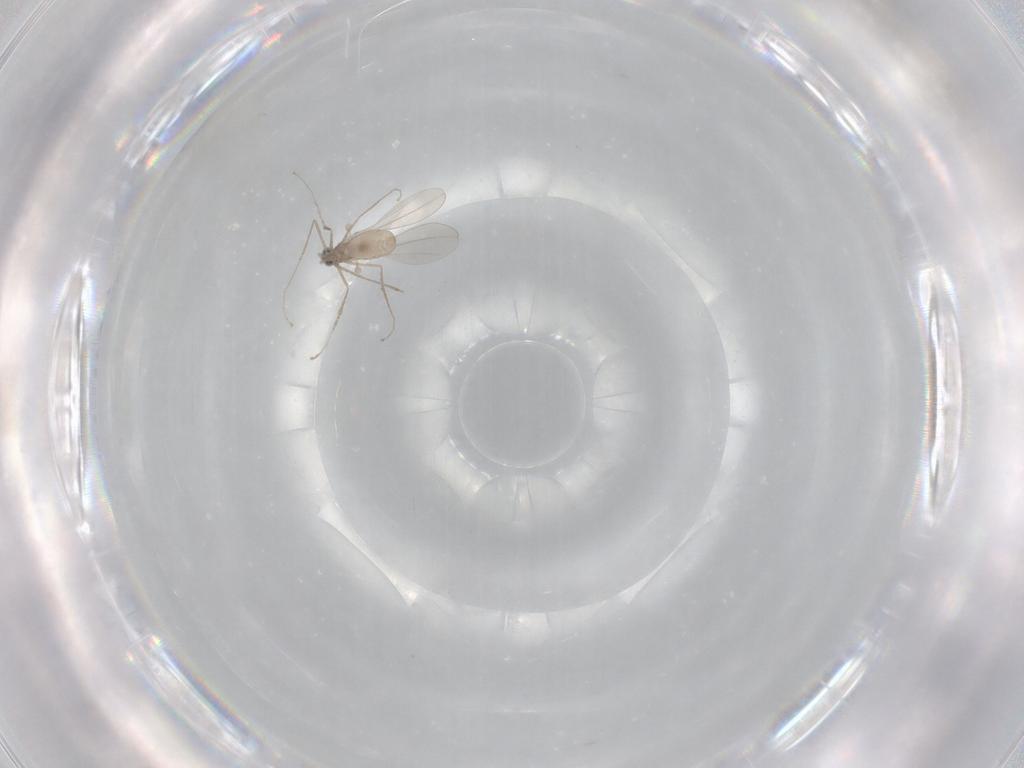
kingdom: Animalia
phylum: Arthropoda
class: Insecta
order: Diptera
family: Cecidomyiidae
